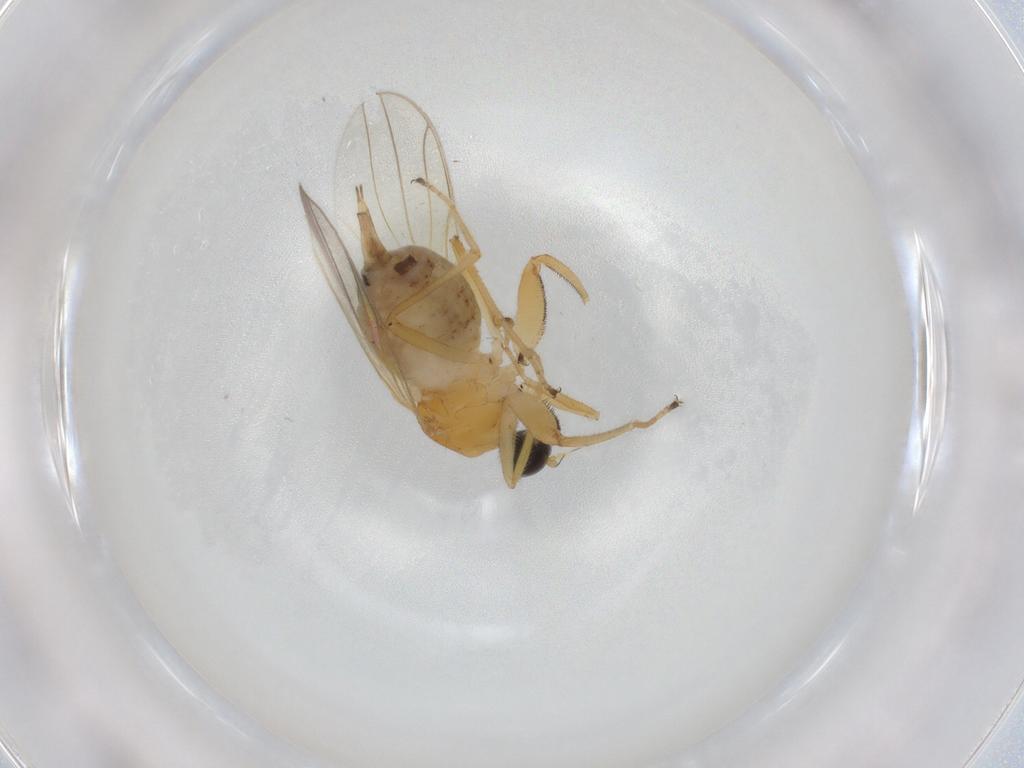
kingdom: Animalia
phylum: Arthropoda
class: Insecta
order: Diptera
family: Hybotidae
